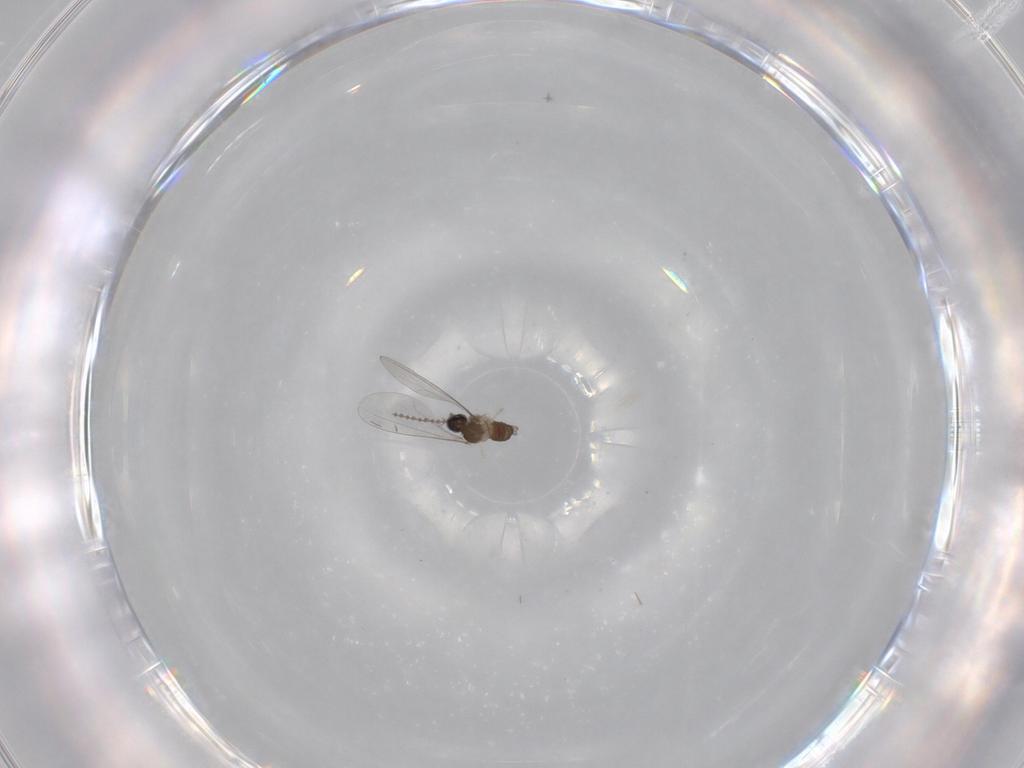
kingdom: Animalia
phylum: Arthropoda
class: Insecta
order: Diptera
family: Cecidomyiidae
